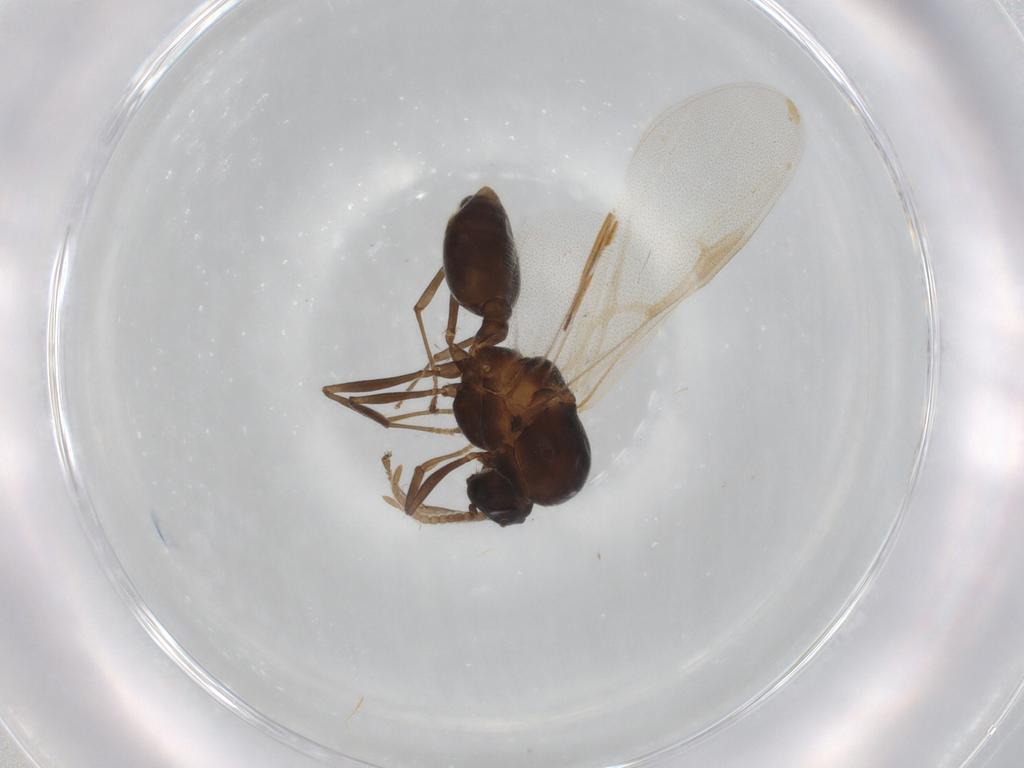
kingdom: Animalia
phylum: Arthropoda
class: Insecta
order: Hymenoptera
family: Formicidae
